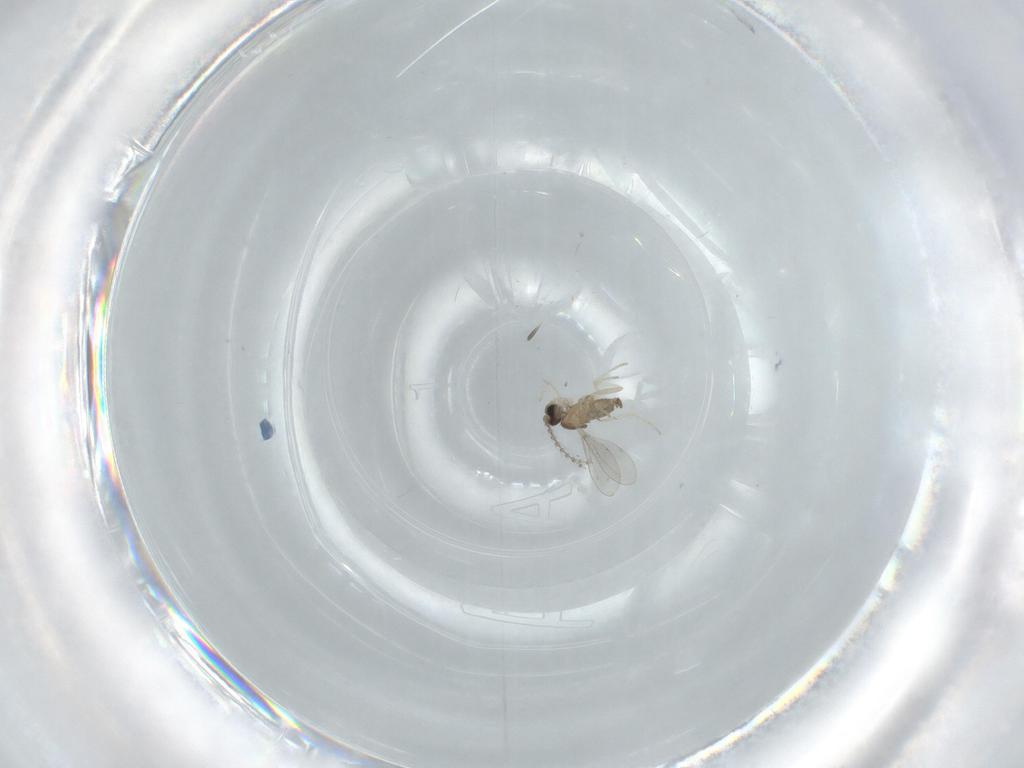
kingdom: Animalia
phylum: Arthropoda
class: Insecta
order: Diptera
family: Cecidomyiidae
